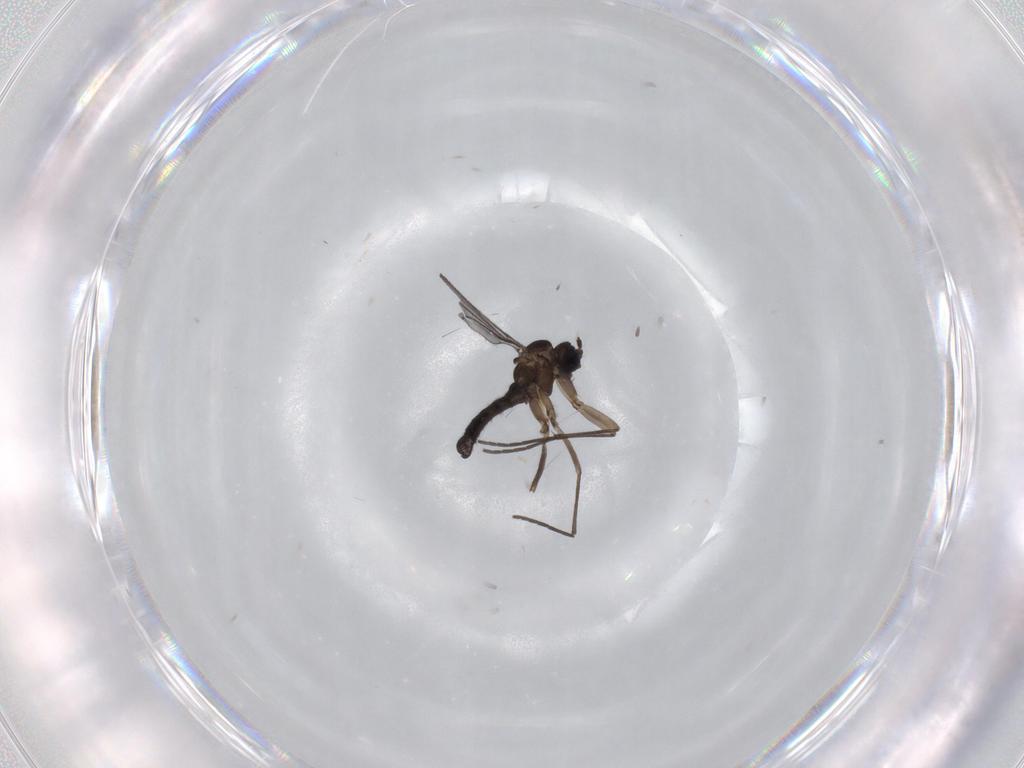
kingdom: Animalia
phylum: Arthropoda
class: Insecta
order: Diptera
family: Sciaridae
